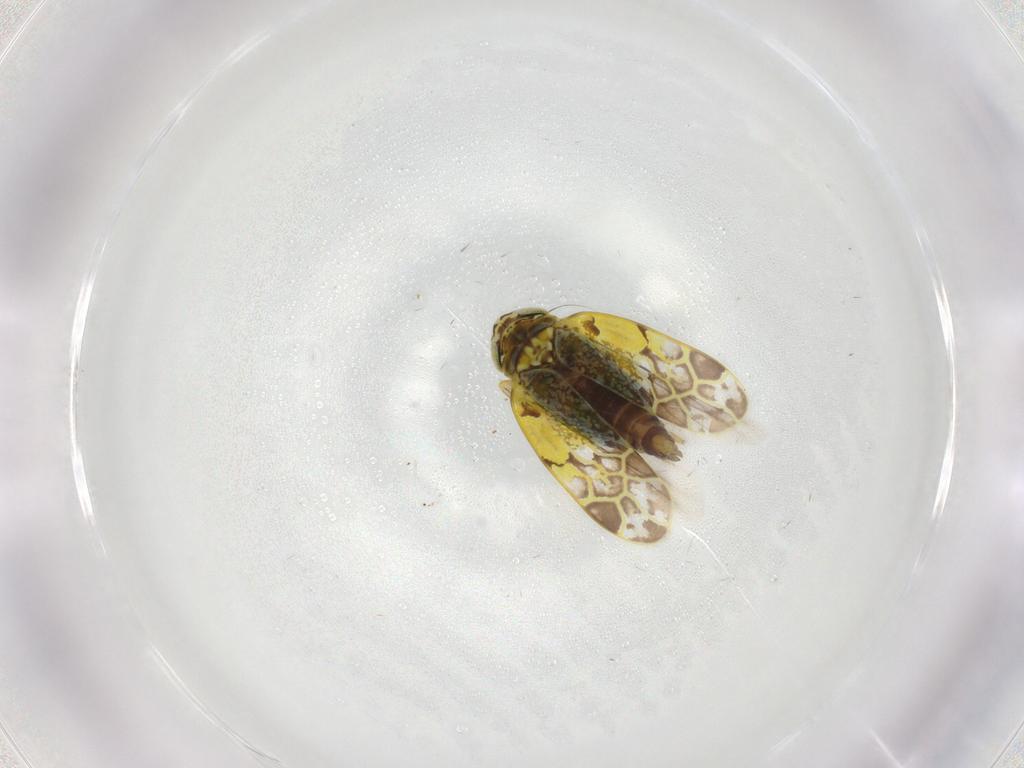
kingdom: Animalia
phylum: Arthropoda
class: Insecta
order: Hemiptera
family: Cicadellidae
